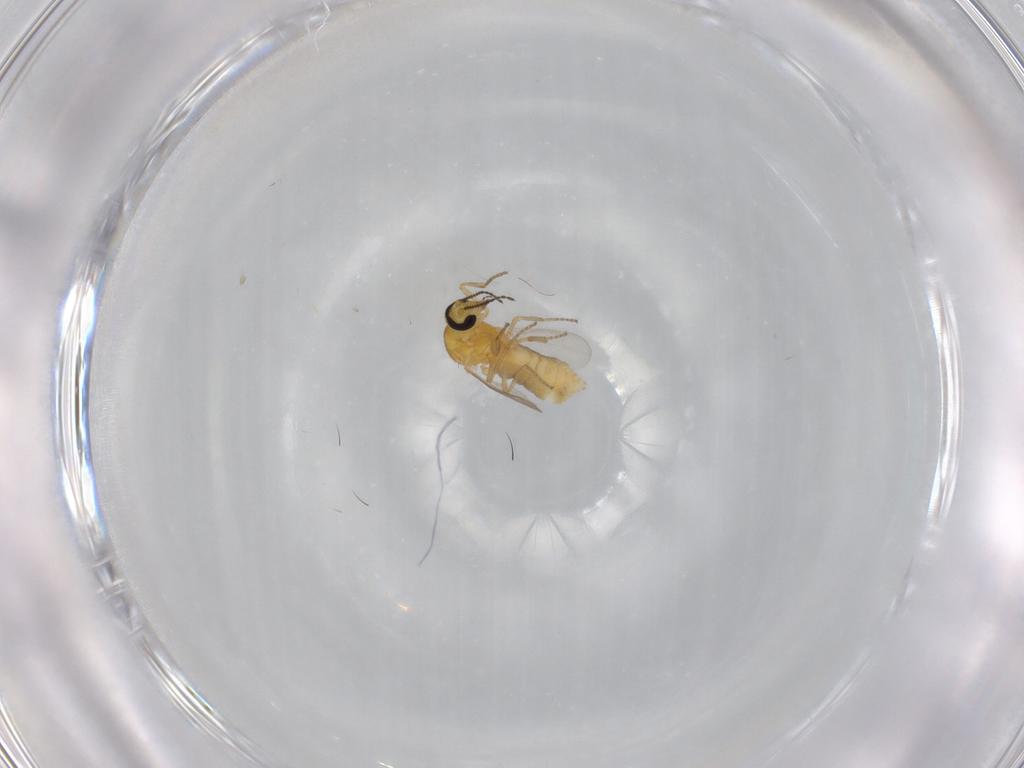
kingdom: Animalia
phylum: Arthropoda
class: Insecta
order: Diptera
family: Ceratopogonidae
